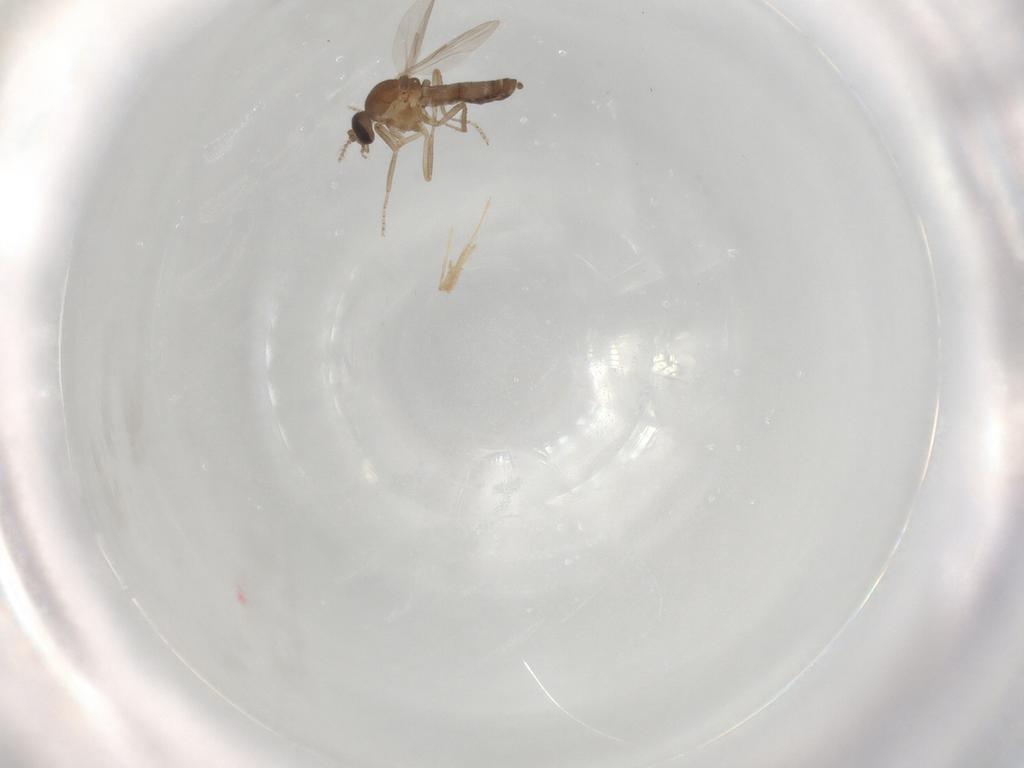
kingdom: Animalia
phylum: Arthropoda
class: Insecta
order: Diptera
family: Ceratopogonidae
